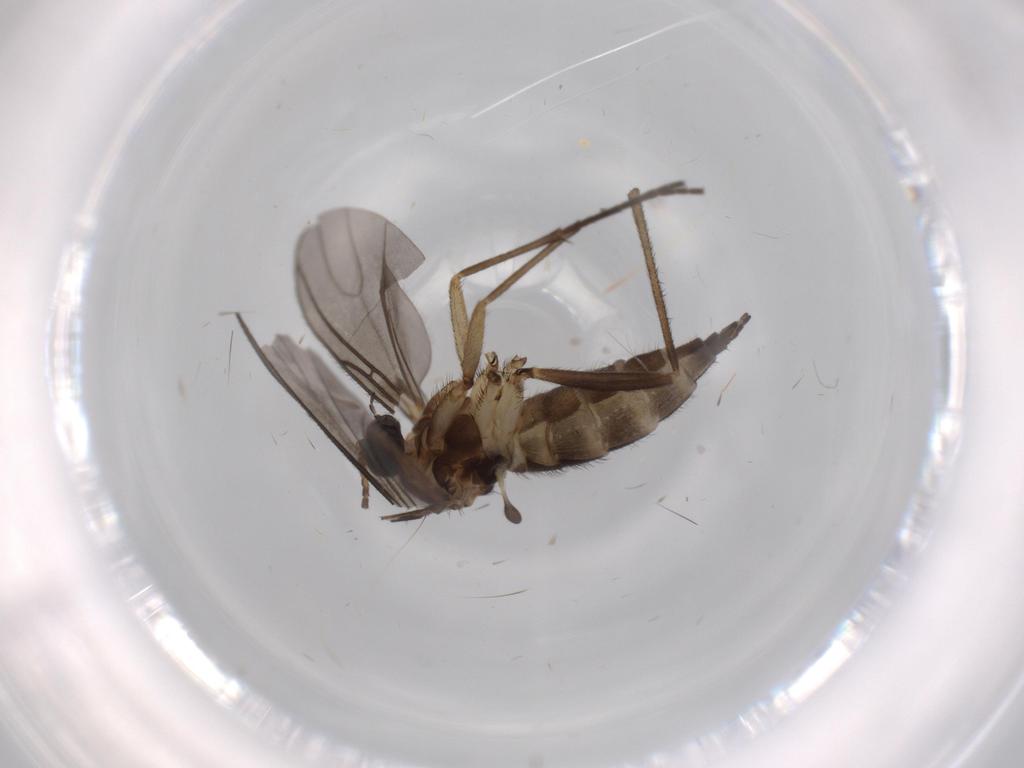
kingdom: Animalia
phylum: Arthropoda
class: Insecta
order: Diptera
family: Sciaridae
